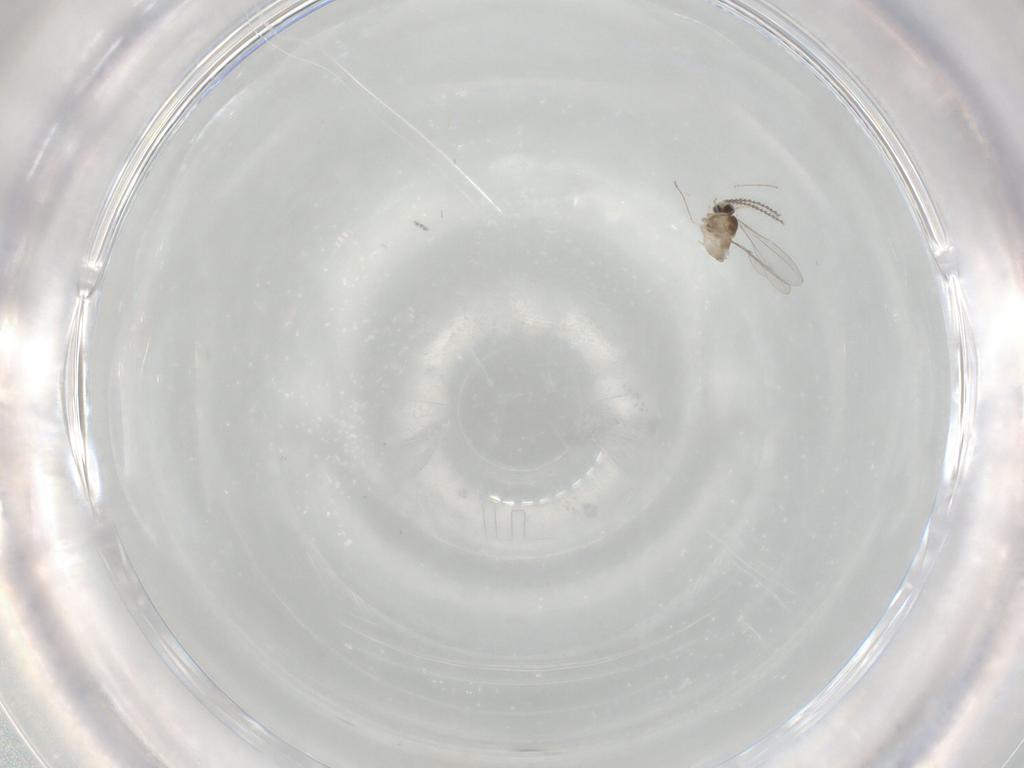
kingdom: Animalia
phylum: Arthropoda
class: Insecta
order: Diptera
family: Cecidomyiidae
